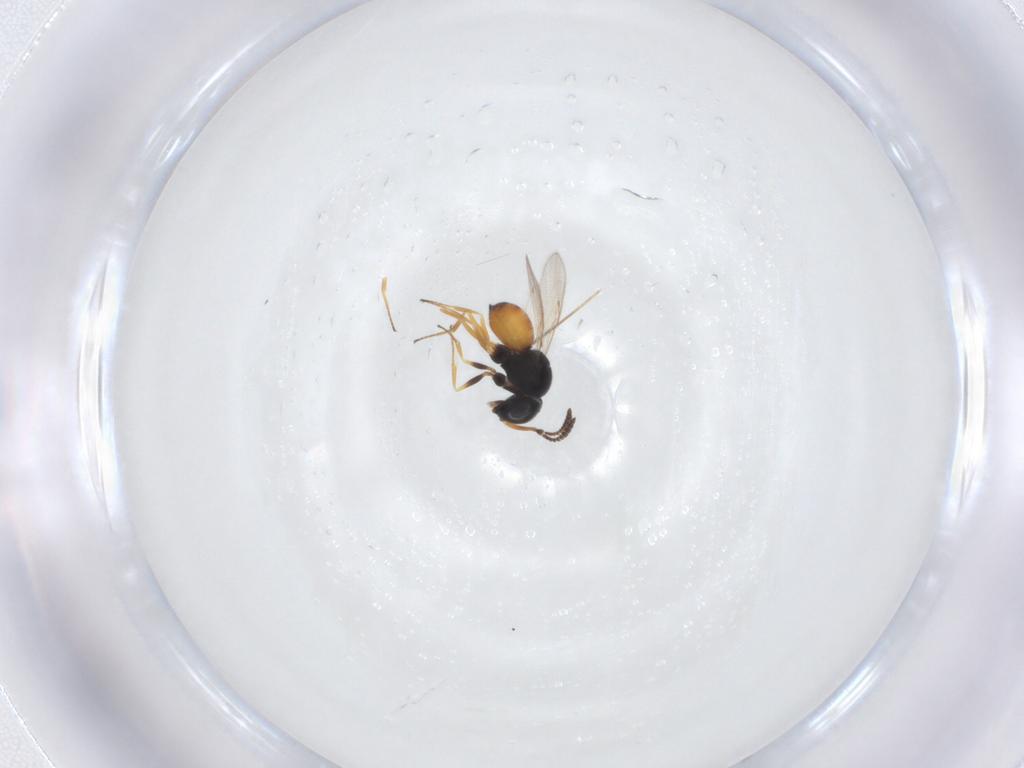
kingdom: Animalia
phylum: Arthropoda
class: Insecta
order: Hymenoptera
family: Scelionidae
